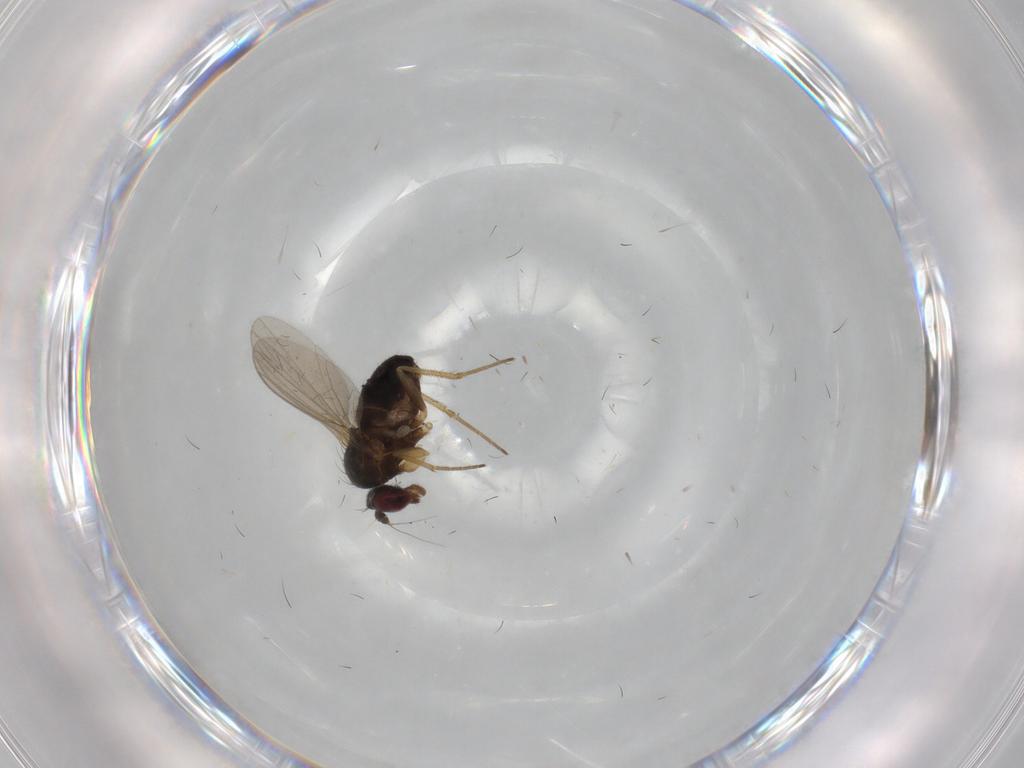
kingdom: Animalia
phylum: Arthropoda
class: Insecta
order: Diptera
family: Dolichopodidae
